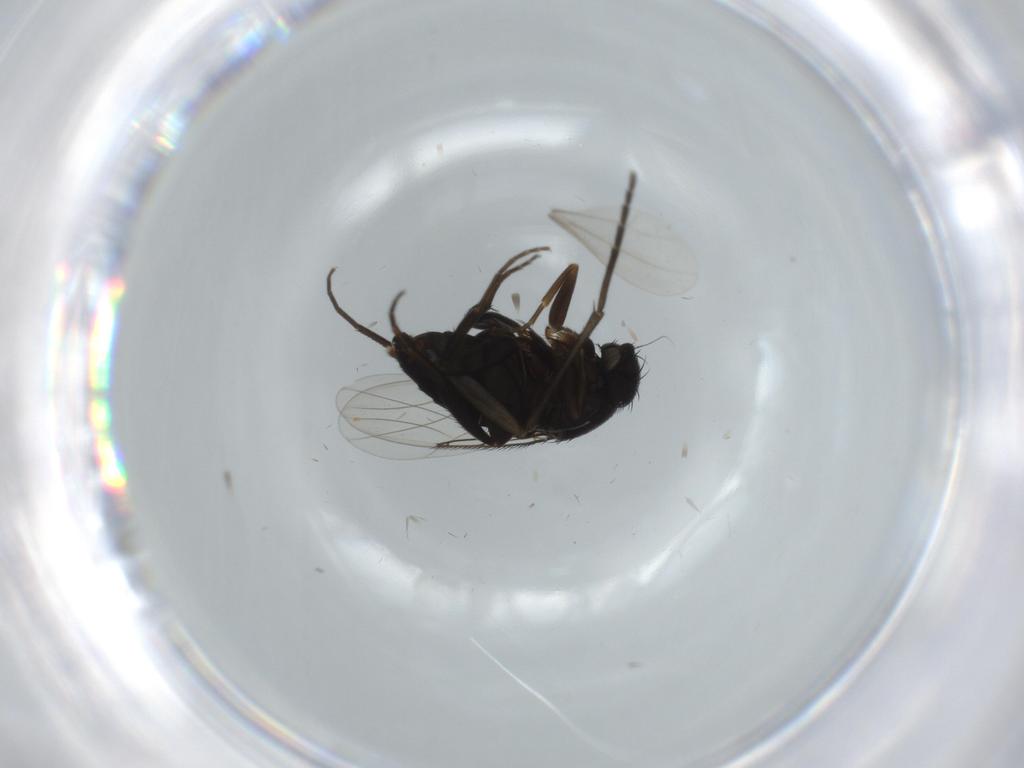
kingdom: Animalia
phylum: Arthropoda
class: Insecta
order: Diptera
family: Phoridae
